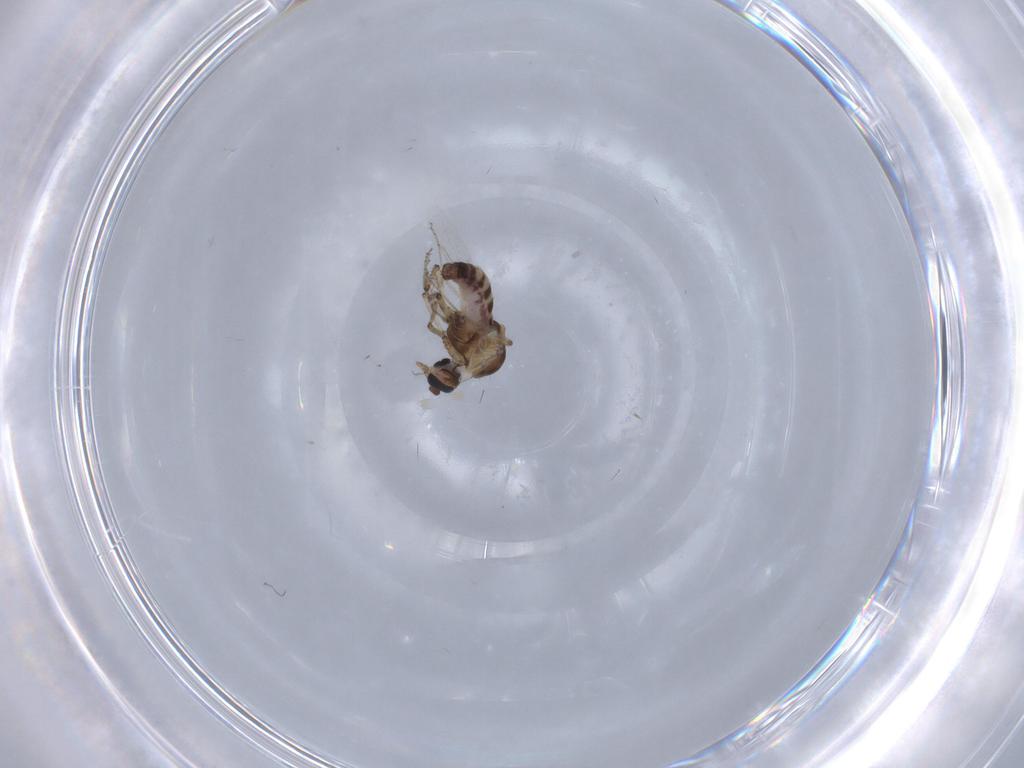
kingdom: Animalia
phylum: Arthropoda
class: Insecta
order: Diptera
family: Ceratopogonidae
